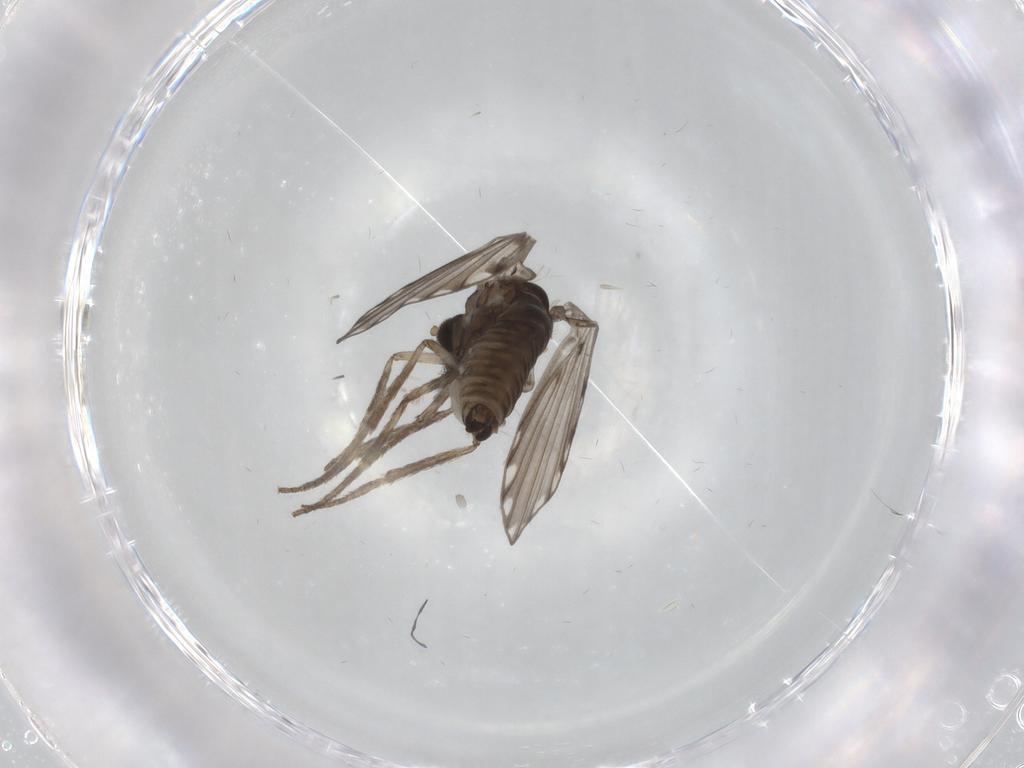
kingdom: Animalia
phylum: Arthropoda
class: Insecta
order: Diptera
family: Psychodidae
